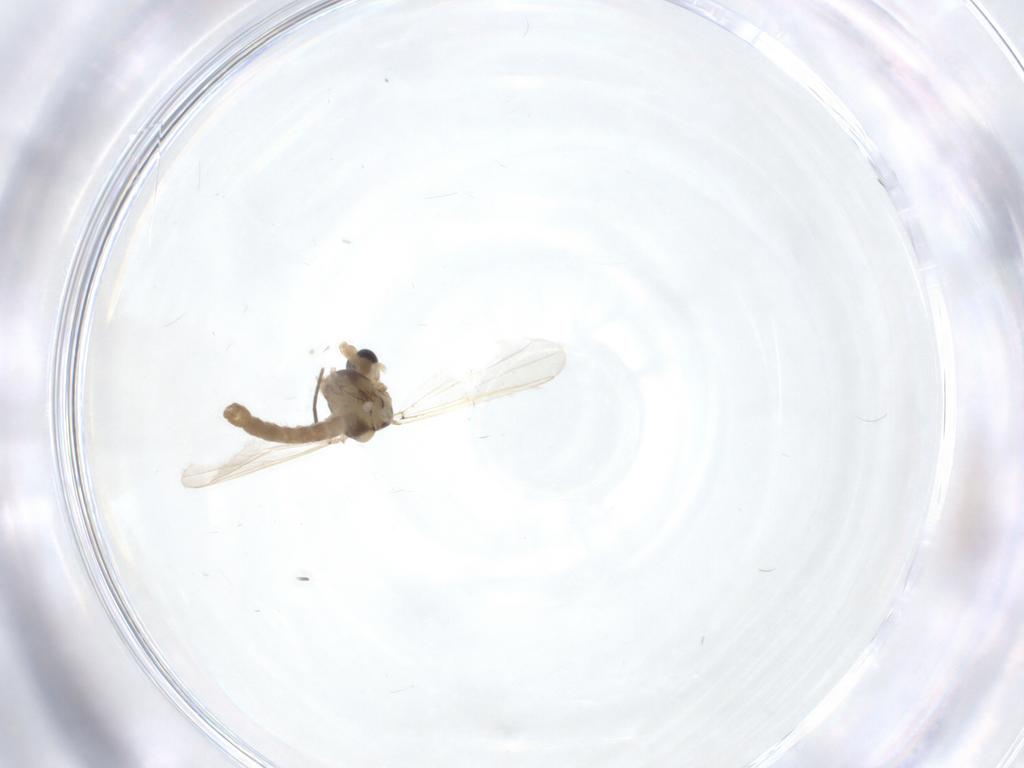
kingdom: Animalia
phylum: Arthropoda
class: Insecta
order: Diptera
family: Chironomidae
